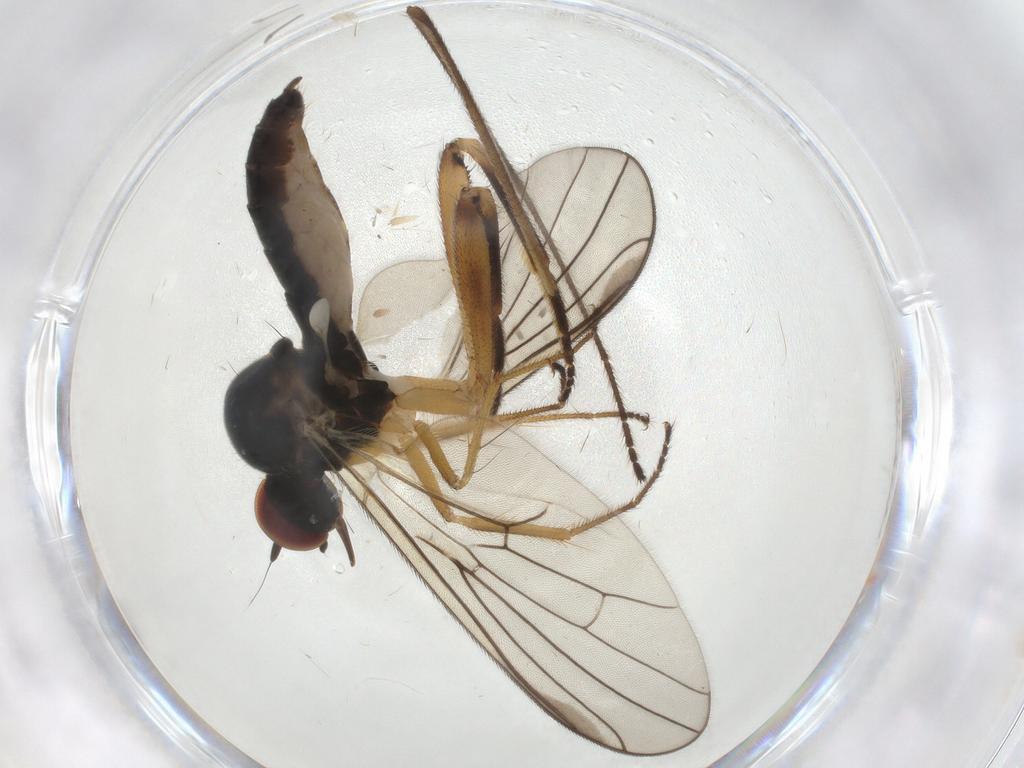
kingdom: Animalia
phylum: Arthropoda
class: Insecta
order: Diptera
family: Hybotidae
